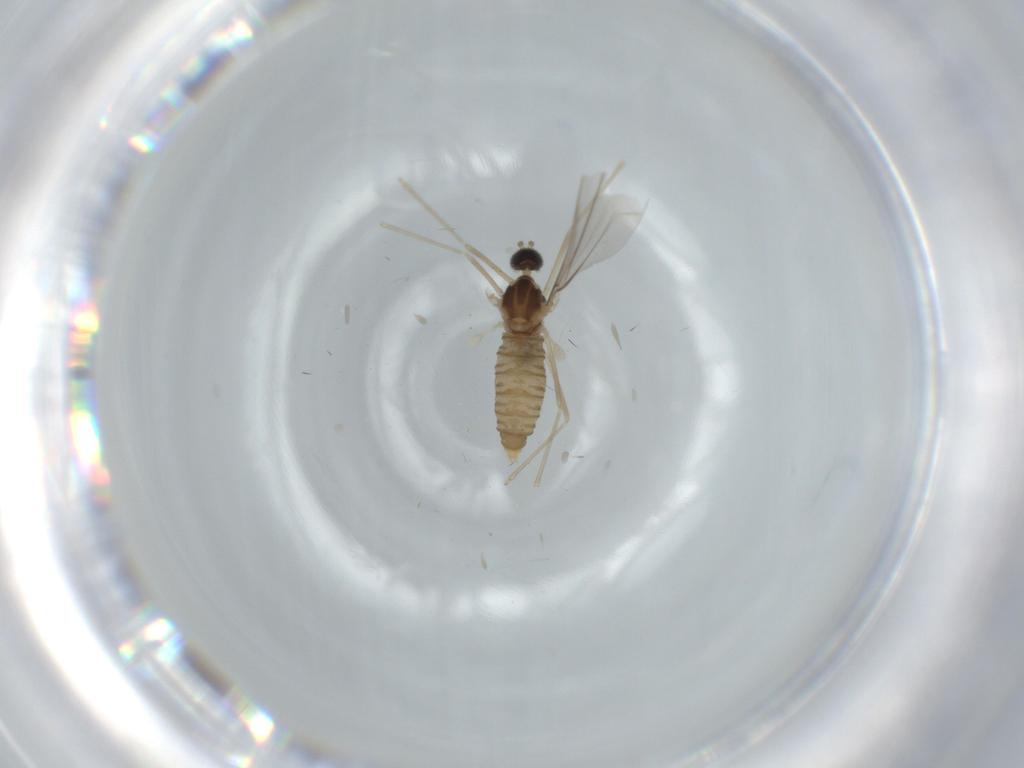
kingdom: Animalia
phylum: Arthropoda
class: Insecta
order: Diptera
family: Cecidomyiidae
